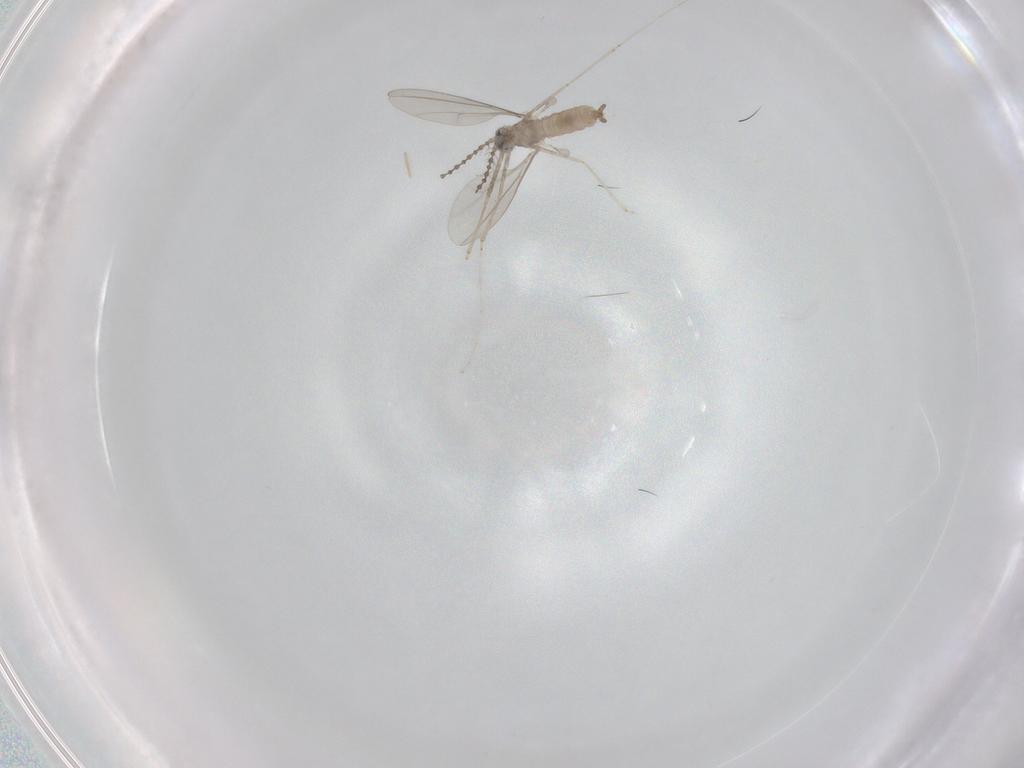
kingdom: Animalia
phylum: Arthropoda
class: Insecta
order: Diptera
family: Cecidomyiidae
